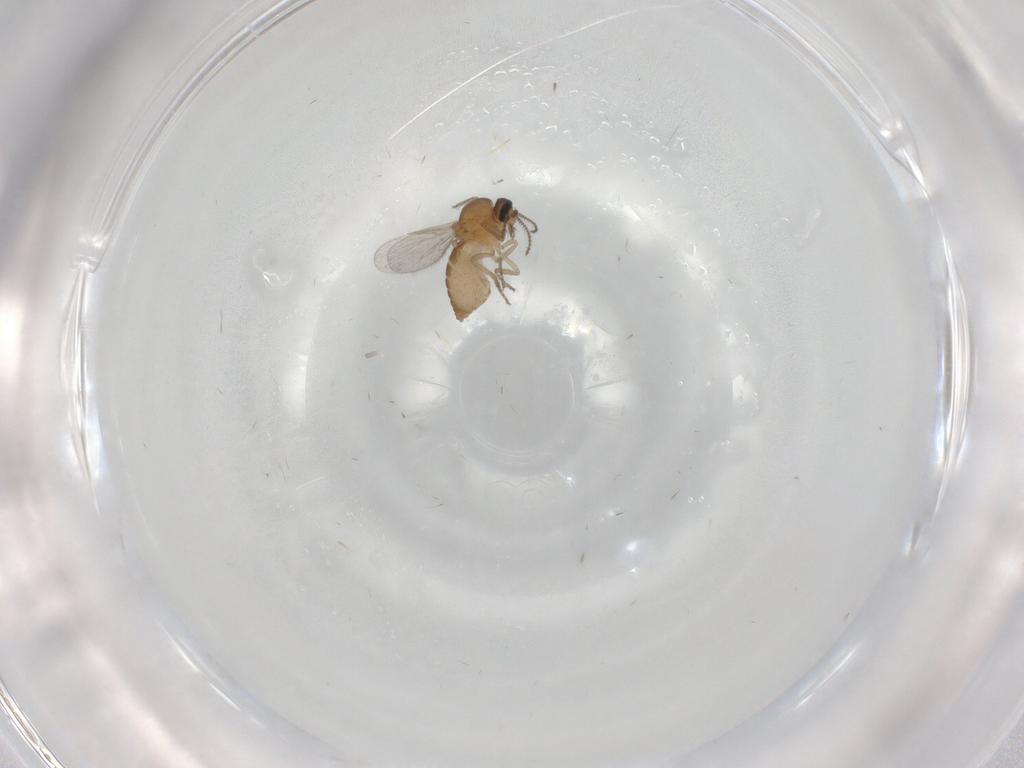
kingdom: Animalia
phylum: Arthropoda
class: Insecta
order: Diptera
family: Ceratopogonidae
